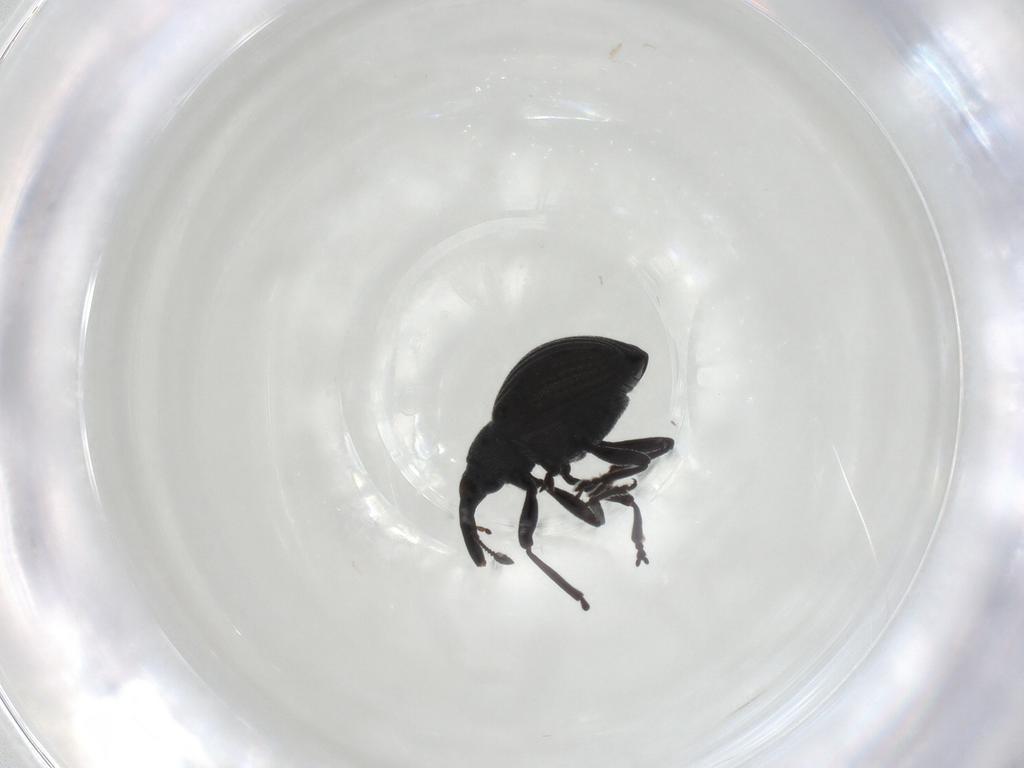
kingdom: Animalia
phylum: Arthropoda
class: Insecta
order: Coleoptera
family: Brentidae
